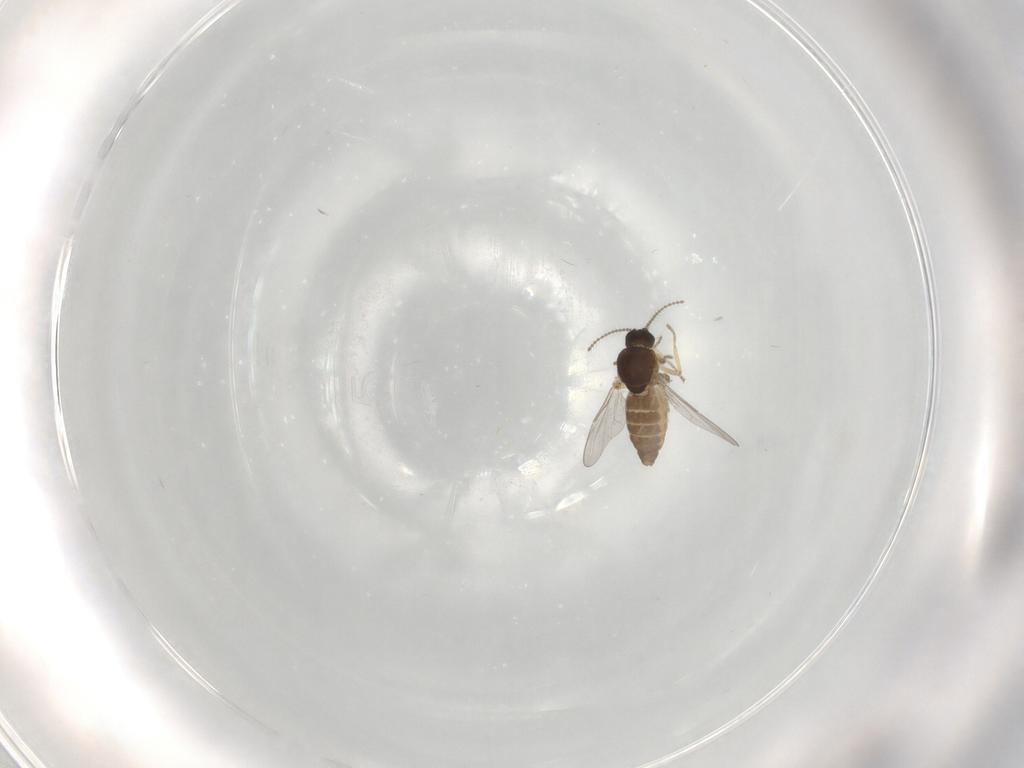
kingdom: Animalia
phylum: Arthropoda
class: Insecta
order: Diptera
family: Ceratopogonidae
